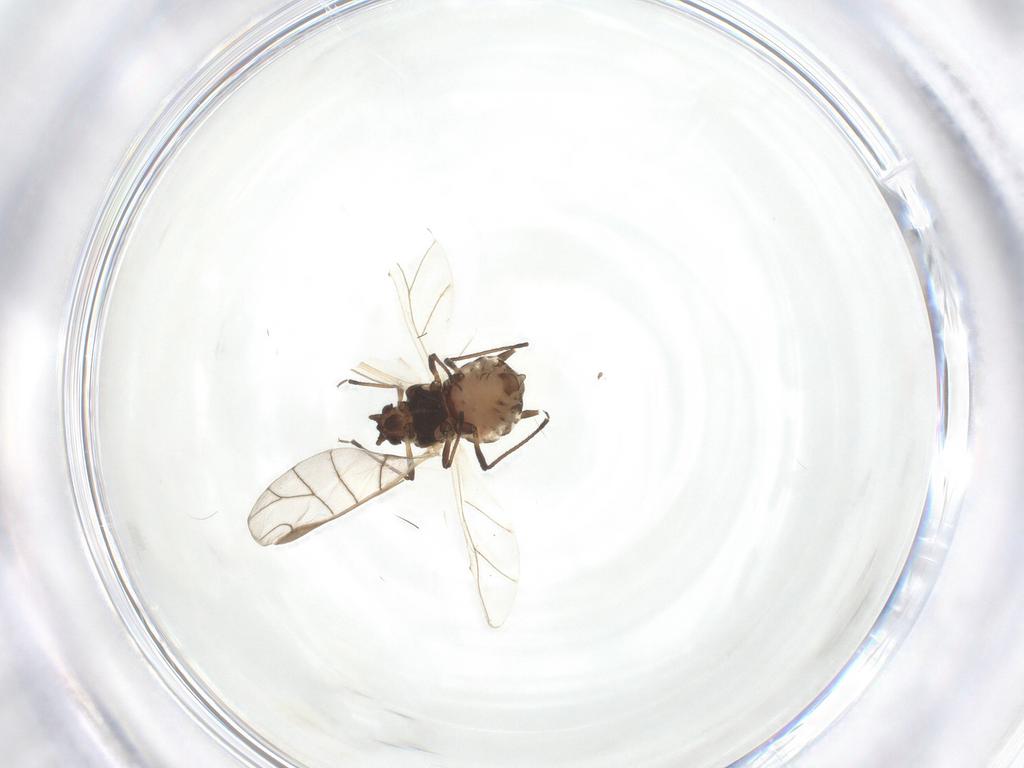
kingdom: Animalia
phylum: Arthropoda
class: Insecta
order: Hemiptera
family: Aphididae
